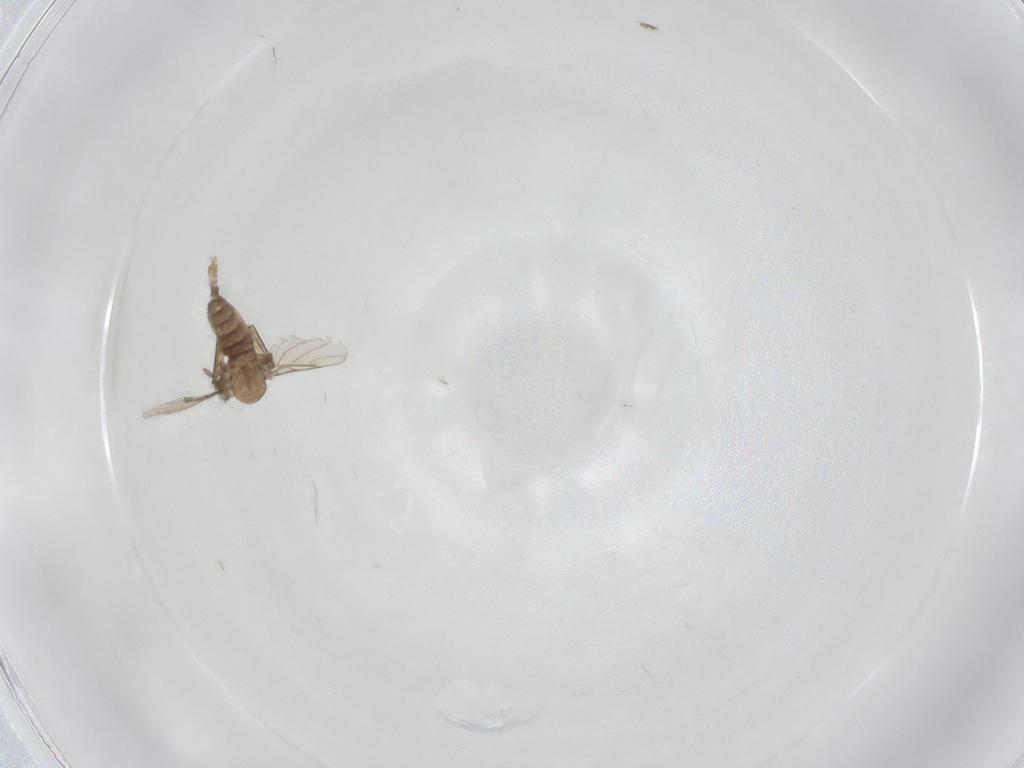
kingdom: Animalia
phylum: Arthropoda
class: Insecta
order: Diptera
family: Phoridae
